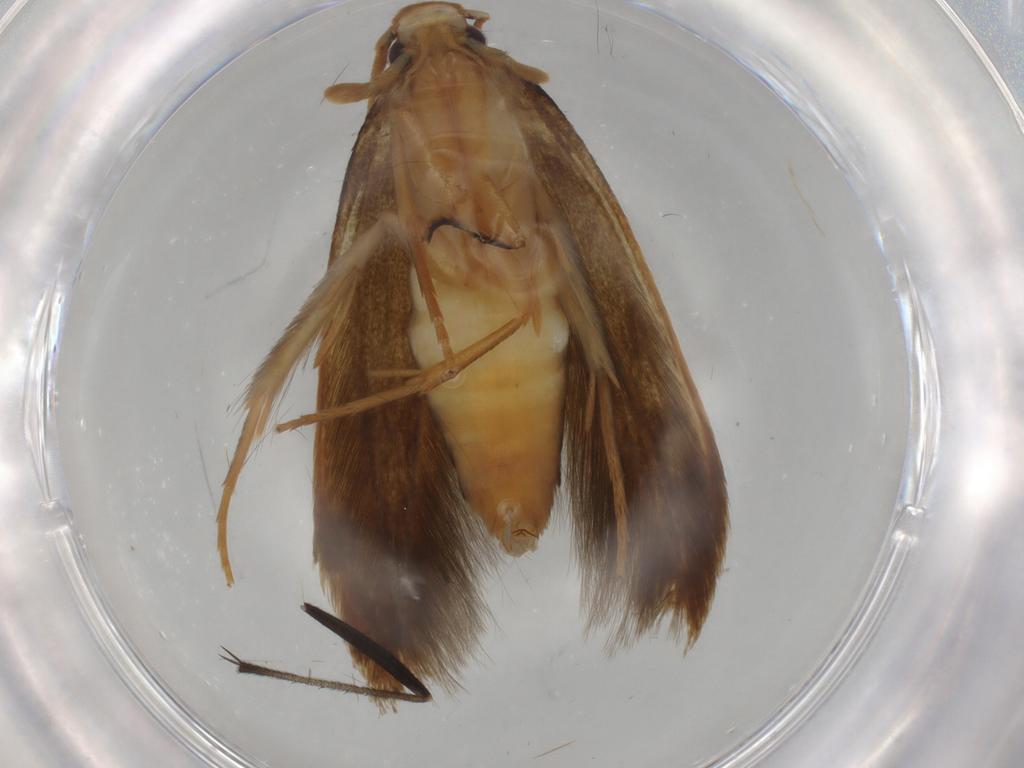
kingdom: Animalia
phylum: Arthropoda
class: Insecta
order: Lepidoptera
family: Tineidae
